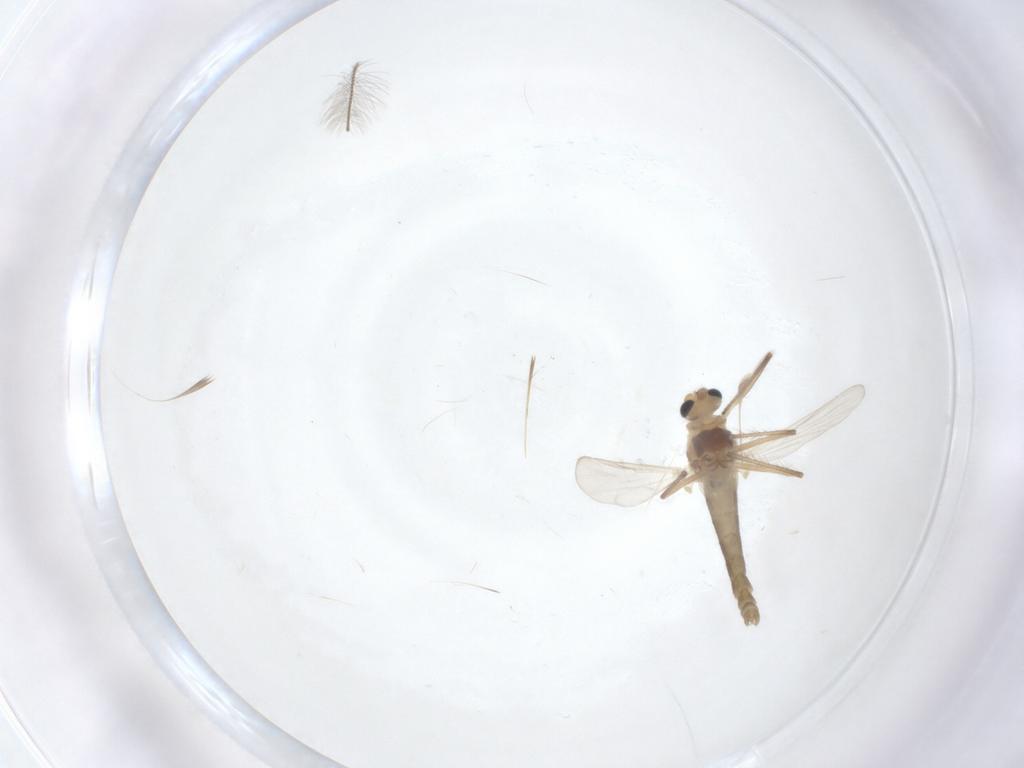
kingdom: Animalia
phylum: Arthropoda
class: Insecta
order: Diptera
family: Chironomidae
